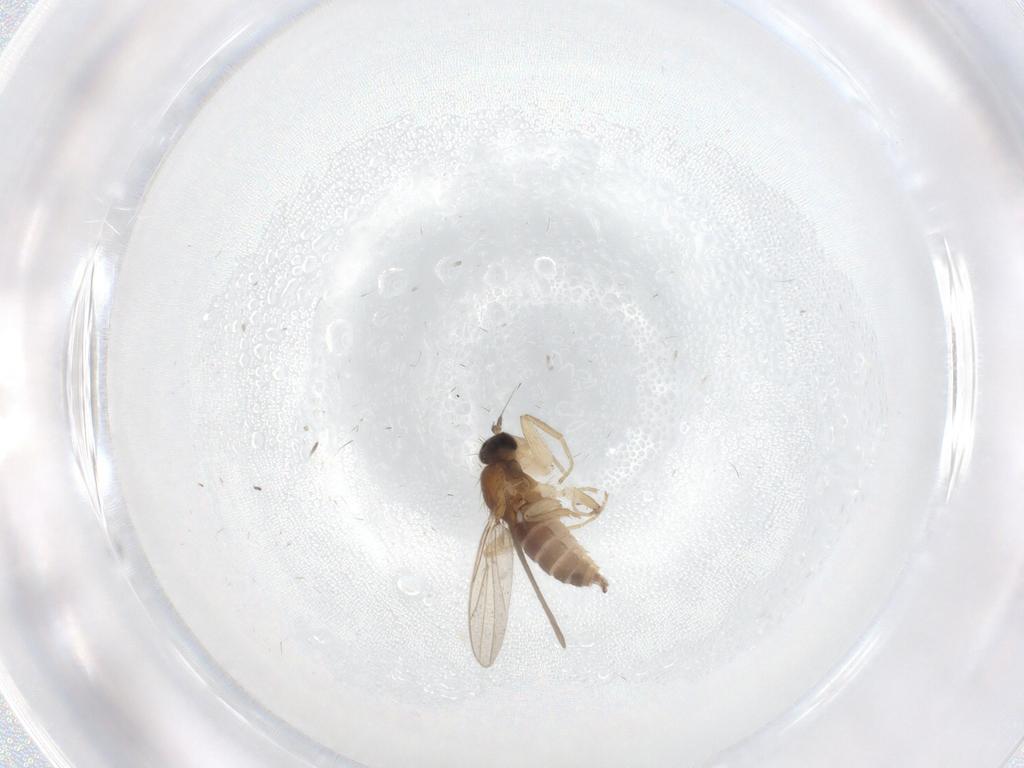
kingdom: Animalia
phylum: Arthropoda
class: Insecta
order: Diptera
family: Hybotidae
